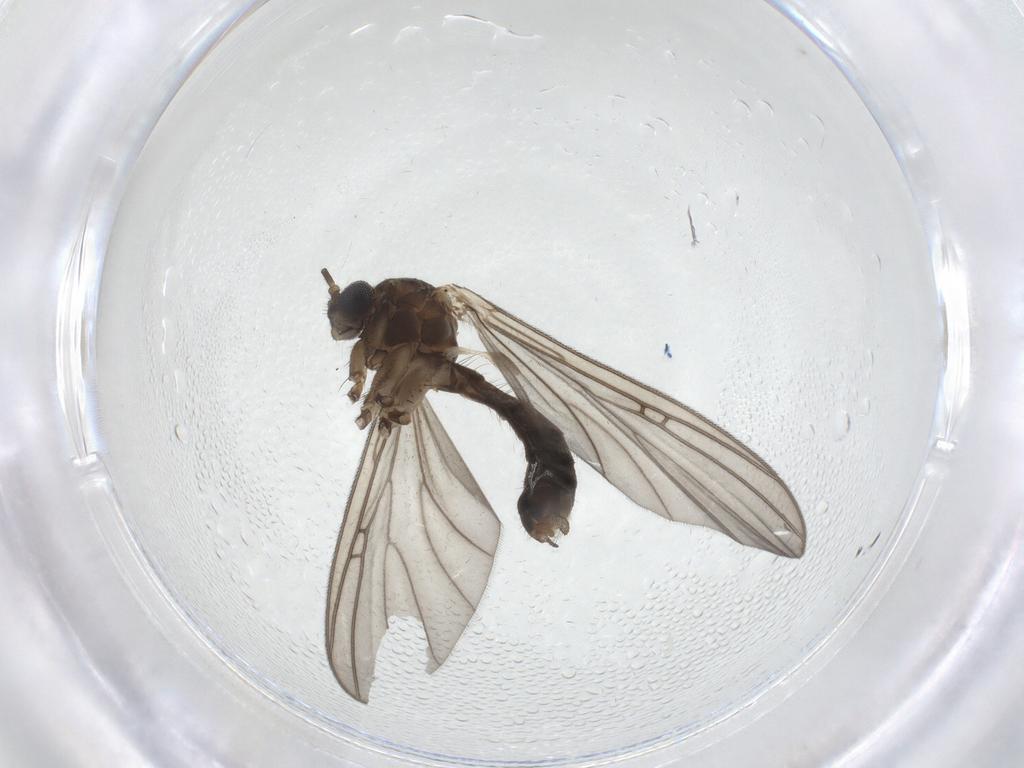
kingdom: Animalia
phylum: Arthropoda
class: Insecta
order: Diptera
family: Mycetophilidae
